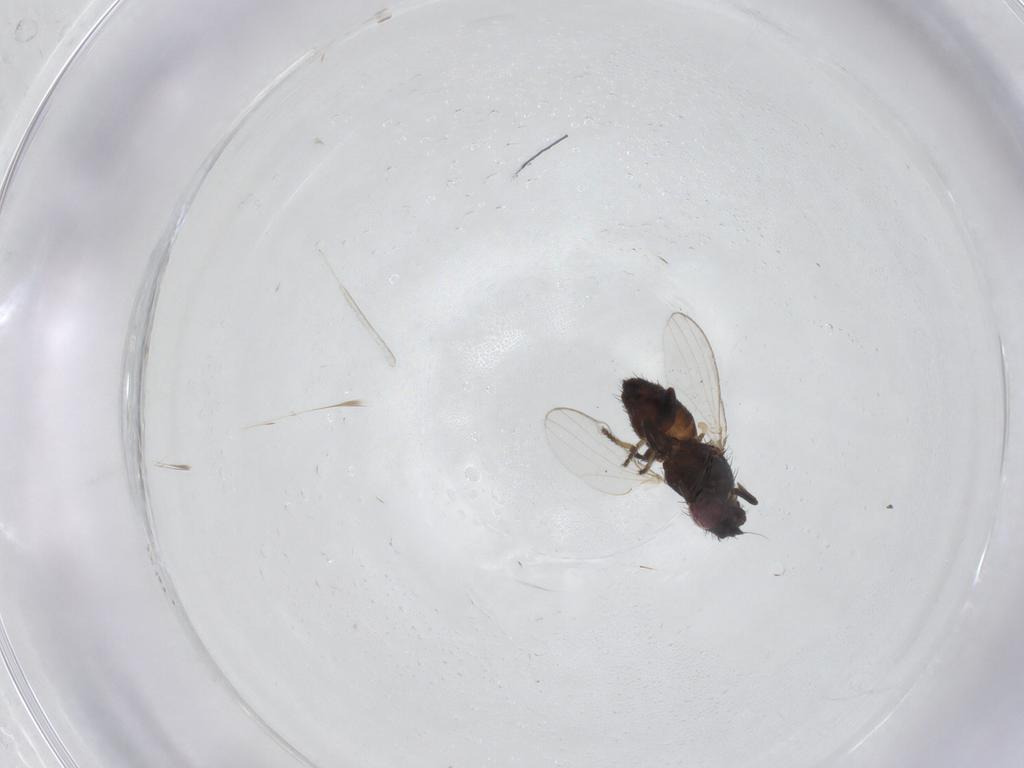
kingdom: Animalia
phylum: Arthropoda
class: Insecta
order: Diptera
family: Milichiidae
